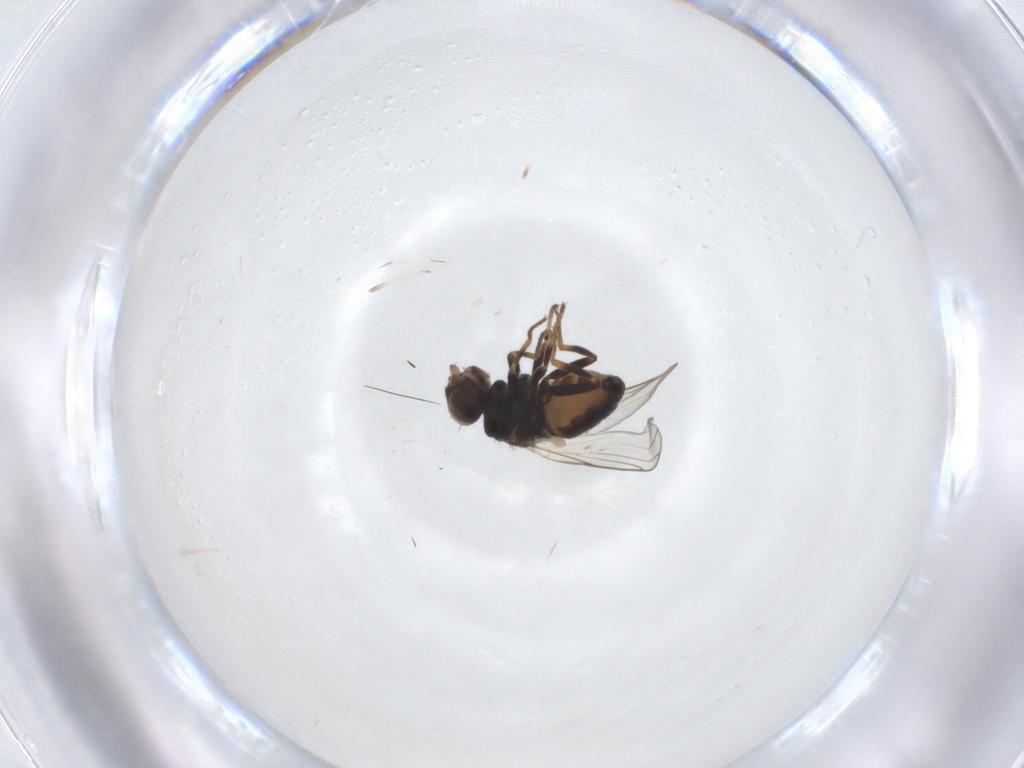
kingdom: Animalia
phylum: Arthropoda
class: Insecta
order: Diptera
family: Chloropidae
